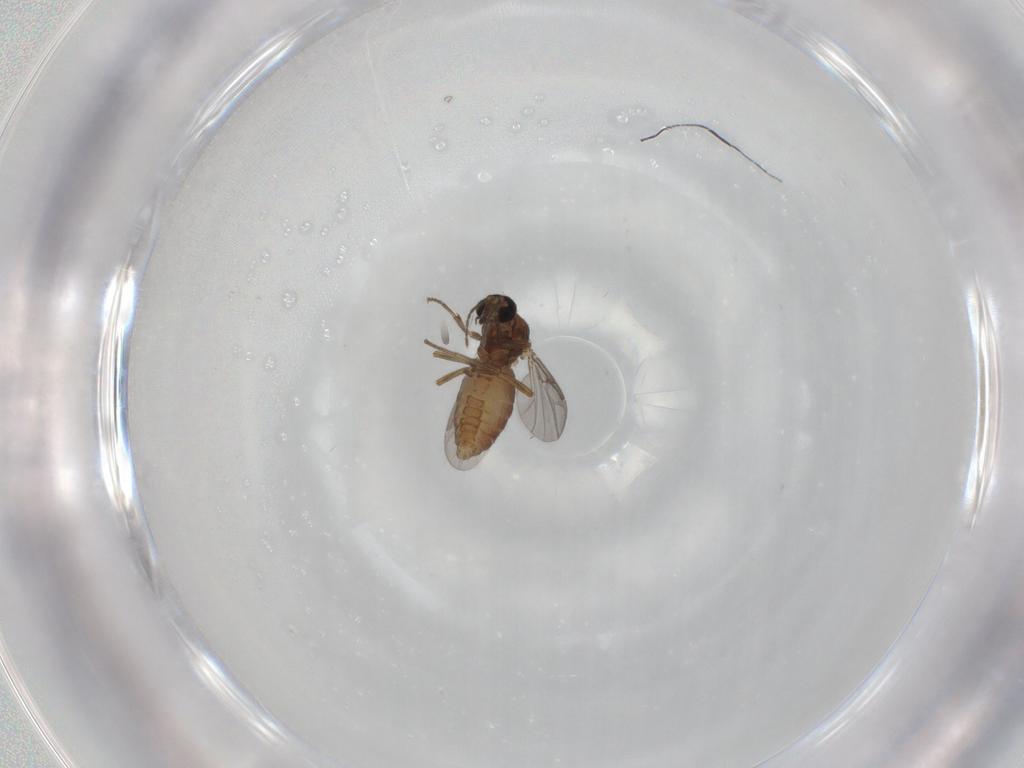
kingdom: Animalia
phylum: Arthropoda
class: Insecta
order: Diptera
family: Ceratopogonidae
